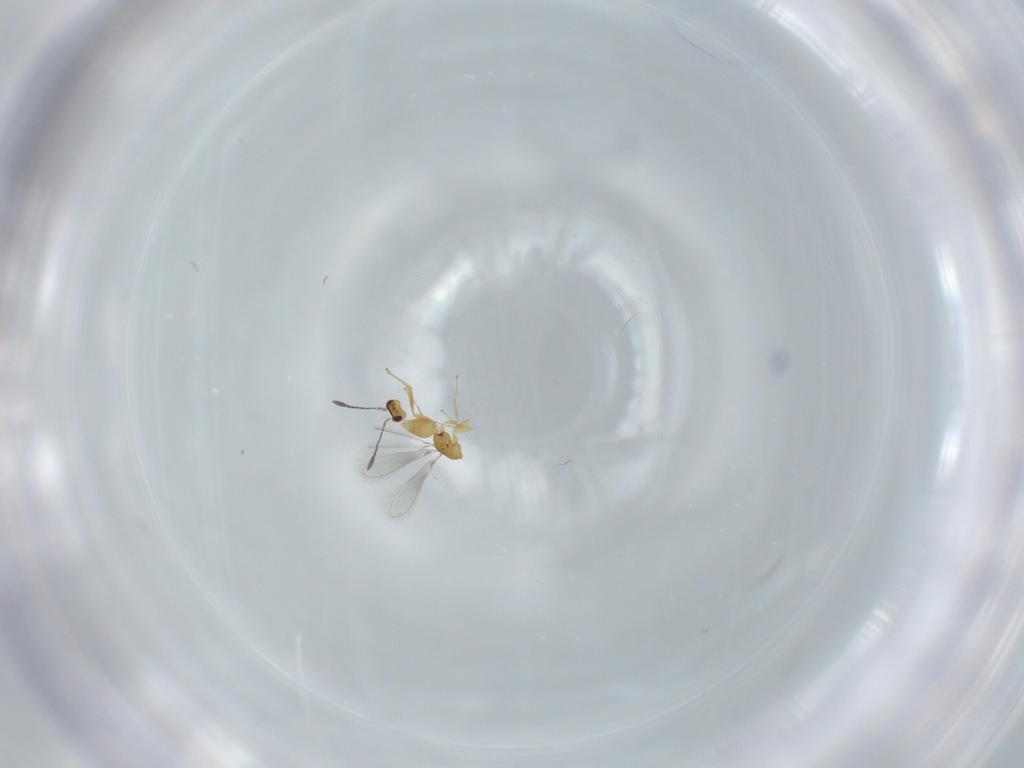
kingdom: Animalia
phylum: Arthropoda
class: Insecta
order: Hymenoptera
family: Mymaridae
